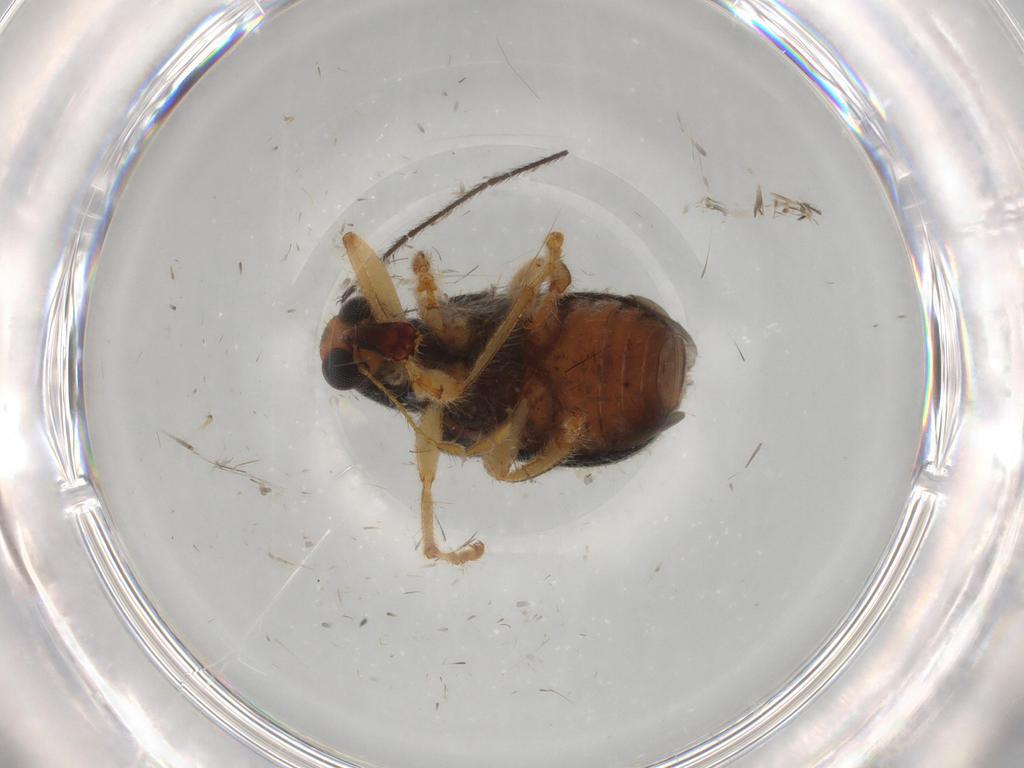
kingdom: Animalia
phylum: Arthropoda
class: Insecta
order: Coleoptera
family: Attelabidae
